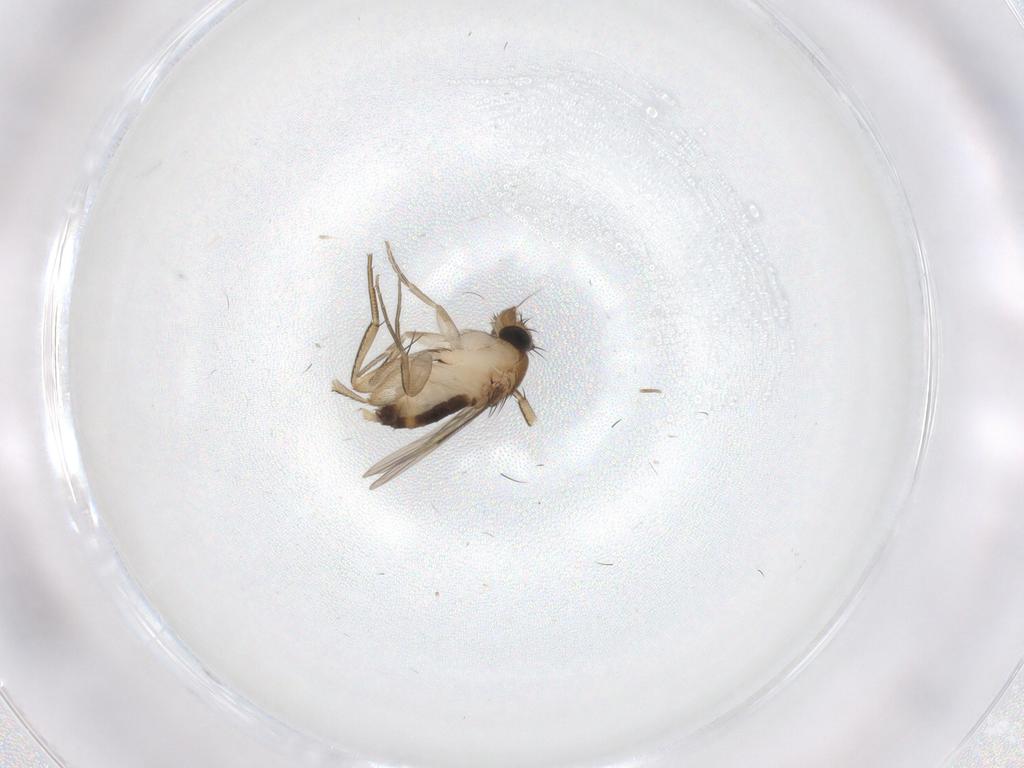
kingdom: Animalia
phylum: Arthropoda
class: Insecta
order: Diptera
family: Phoridae
